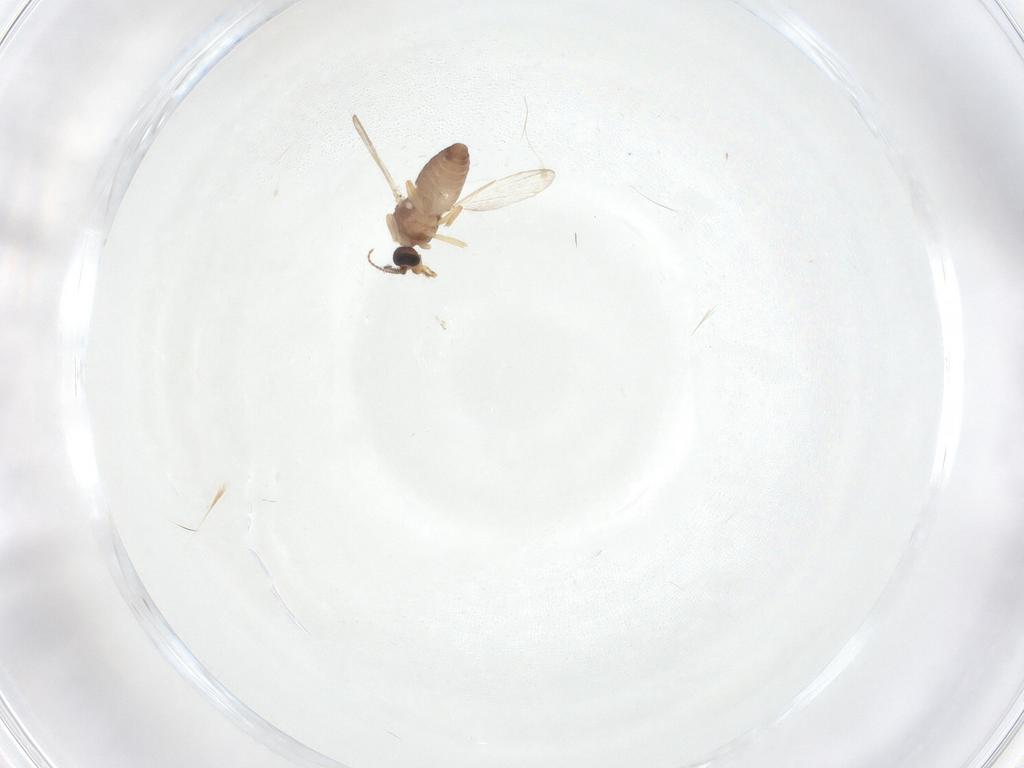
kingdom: Animalia
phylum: Arthropoda
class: Insecta
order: Diptera
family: Ceratopogonidae
